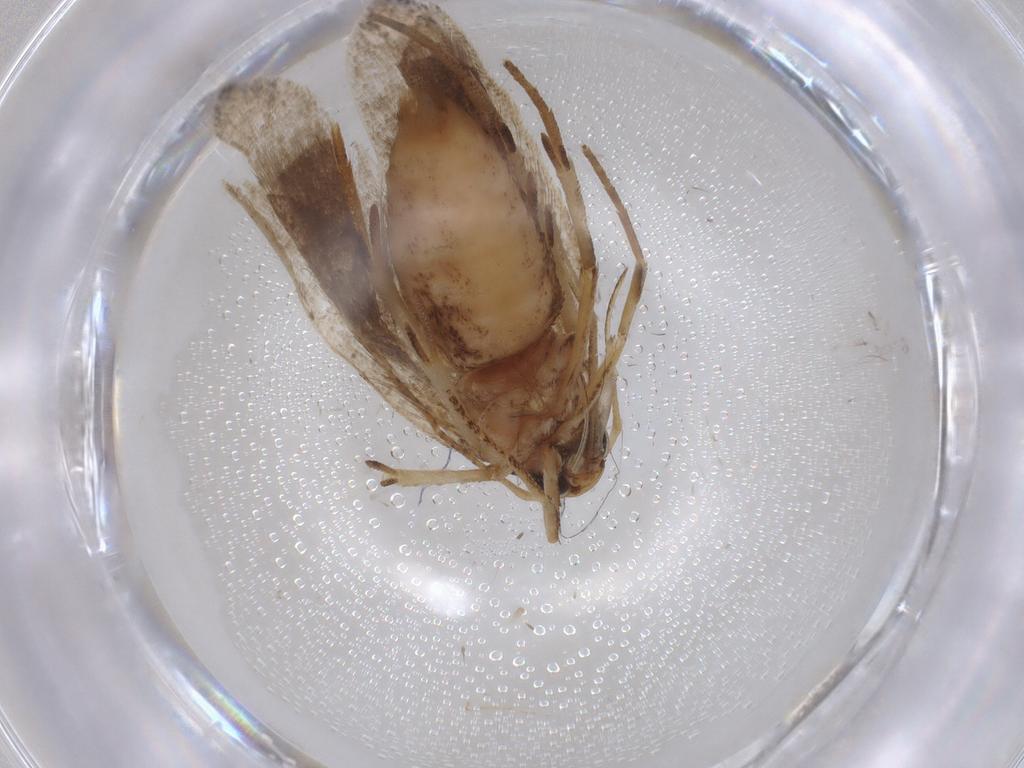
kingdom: Animalia
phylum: Arthropoda
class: Insecta
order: Lepidoptera
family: Gelechiidae
